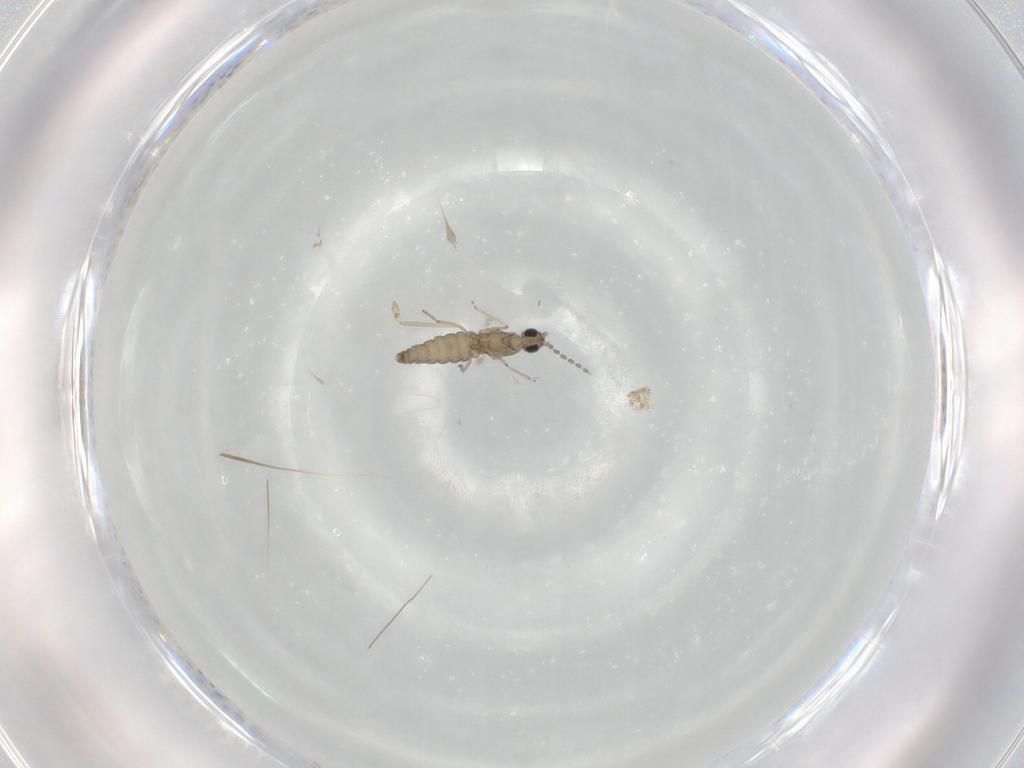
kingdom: Animalia
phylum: Arthropoda
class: Insecta
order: Diptera
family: Cecidomyiidae
